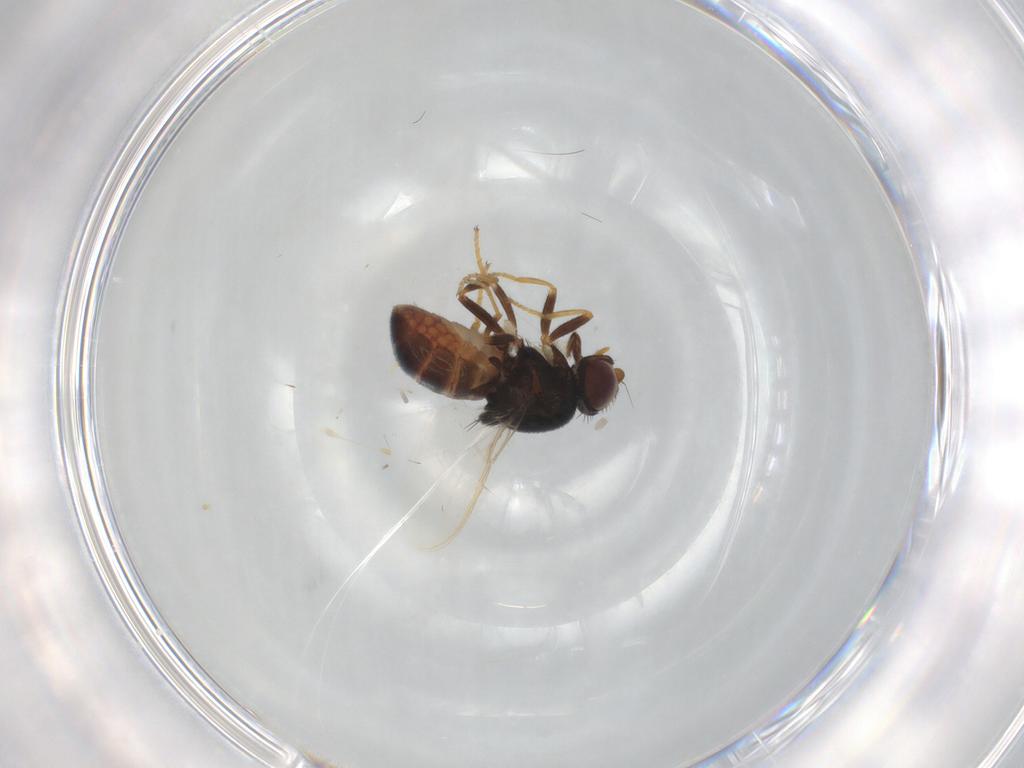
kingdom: Animalia
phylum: Arthropoda
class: Insecta
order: Diptera
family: Chloropidae
